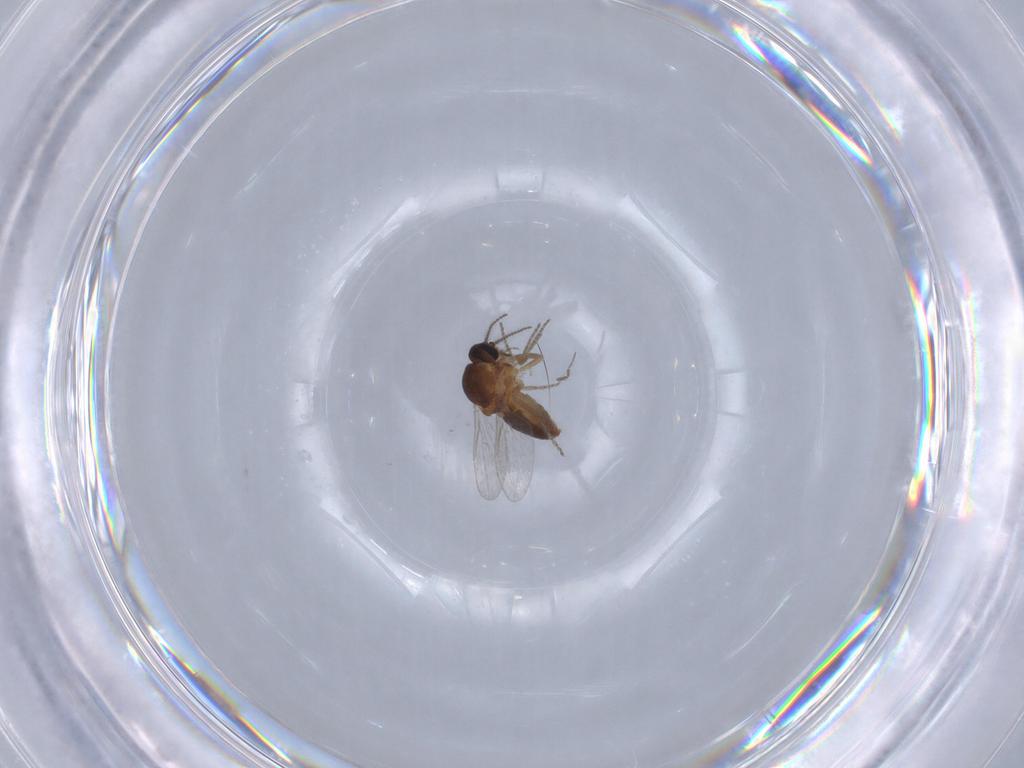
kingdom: Animalia
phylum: Arthropoda
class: Insecta
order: Diptera
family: Ceratopogonidae
